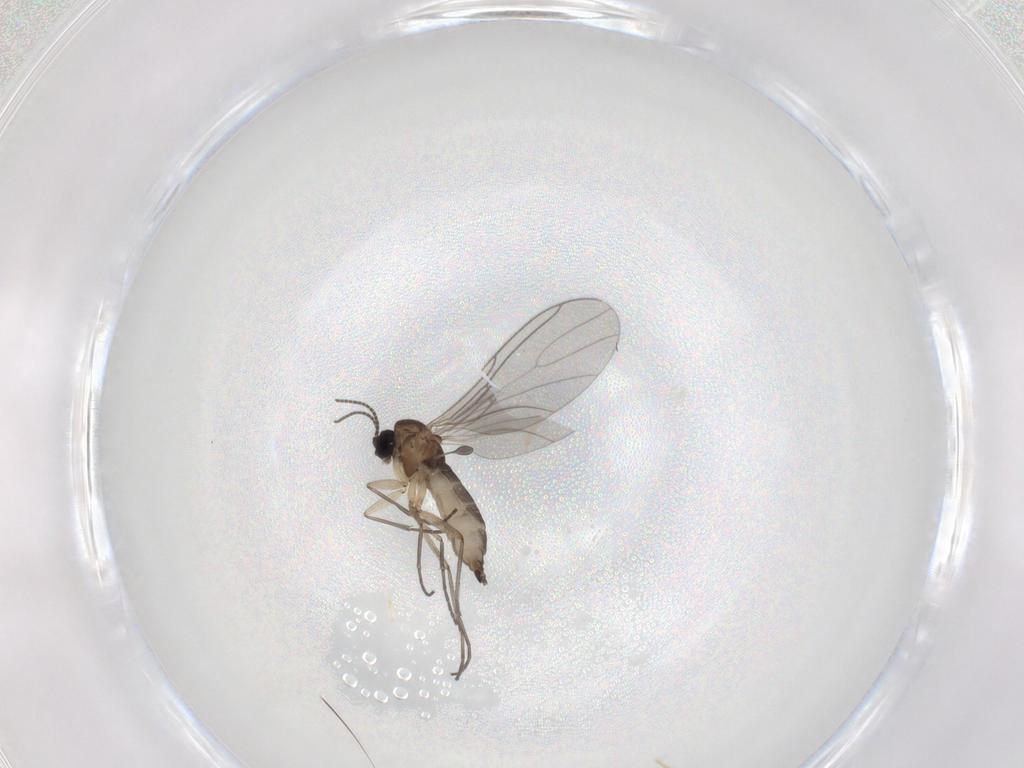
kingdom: Animalia
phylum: Arthropoda
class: Insecta
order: Diptera
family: Sciaridae
